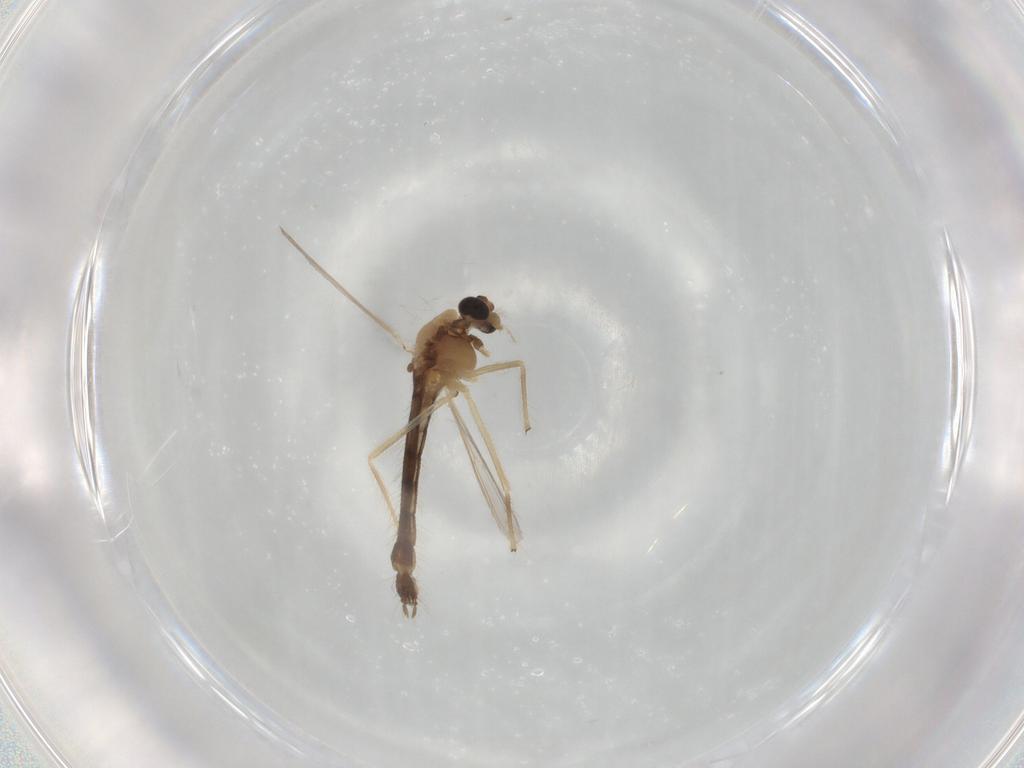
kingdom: Animalia
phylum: Arthropoda
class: Insecta
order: Diptera
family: Chironomidae
